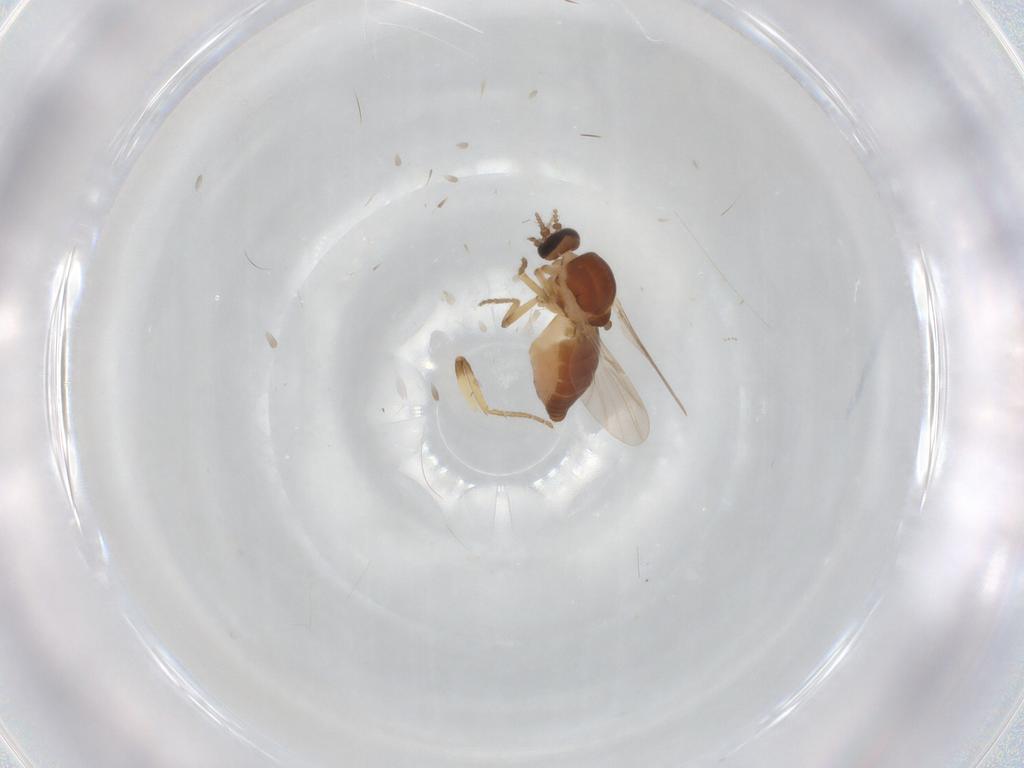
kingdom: Animalia
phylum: Arthropoda
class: Insecta
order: Diptera
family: Ceratopogonidae
